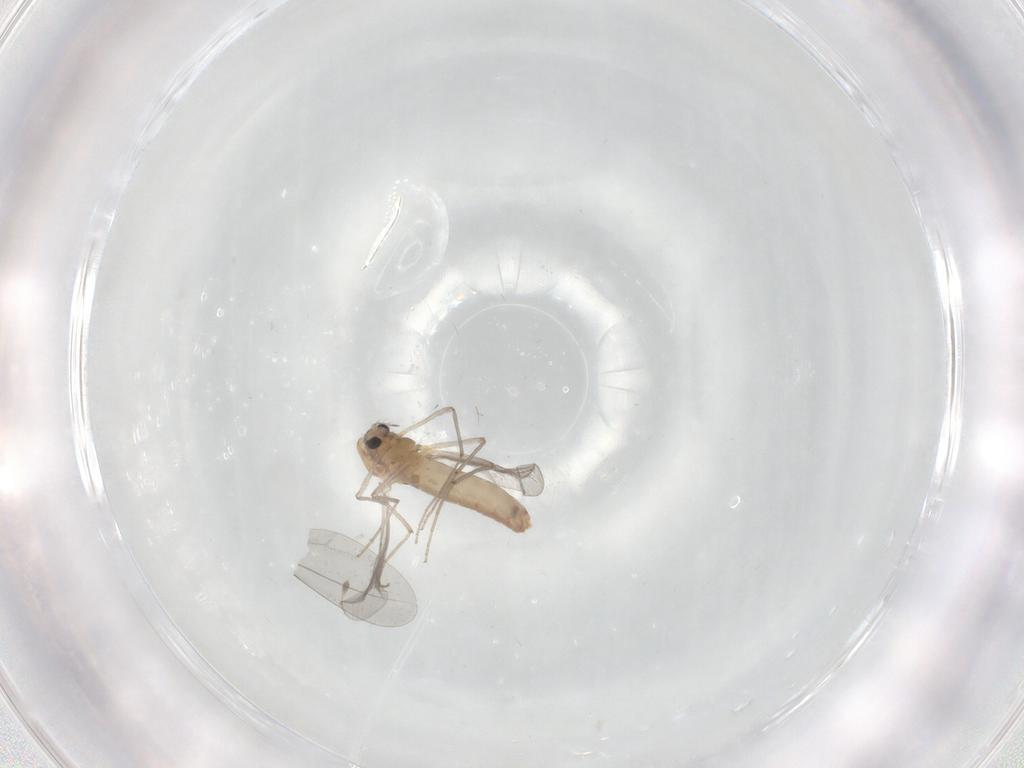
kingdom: Animalia
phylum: Arthropoda
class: Insecta
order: Diptera
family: Chironomidae
